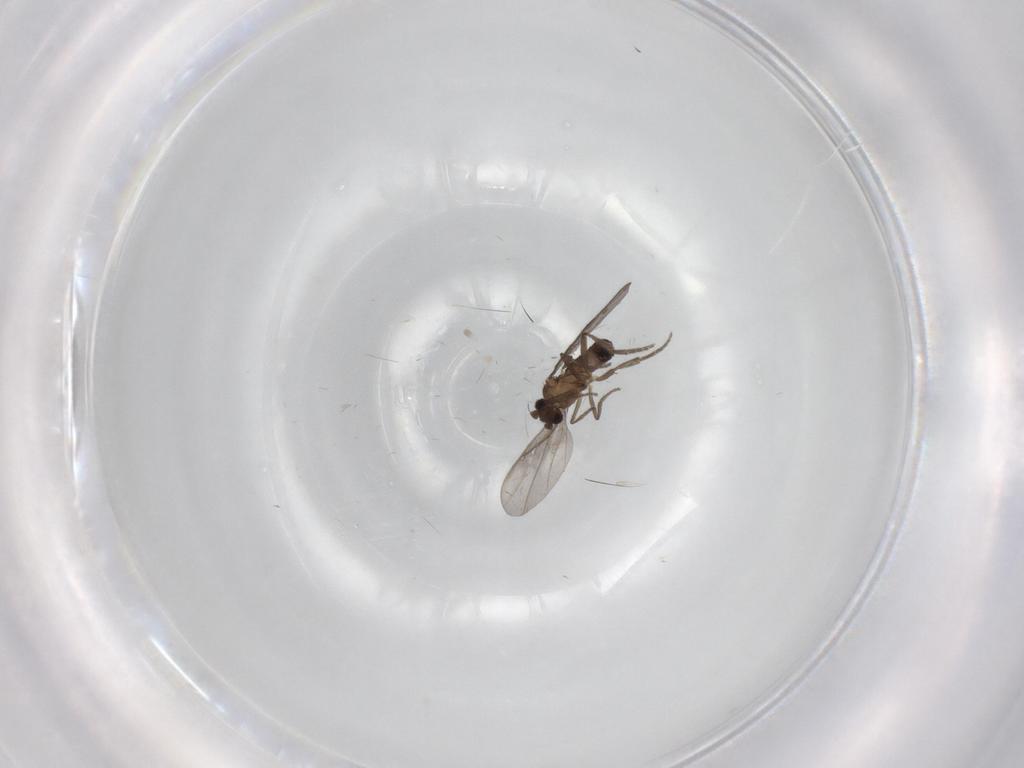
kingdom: Animalia
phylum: Arthropoda
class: Insecta
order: Diptera
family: Cecidomyiidae
